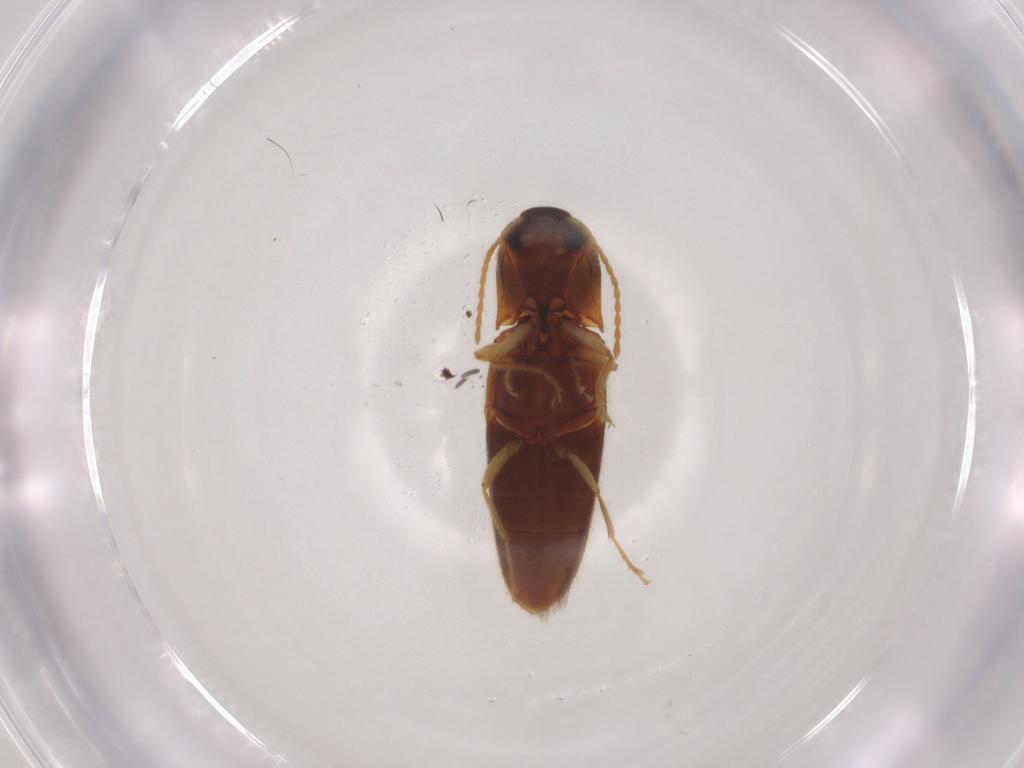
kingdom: Animalia
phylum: Arthropoda
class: Insecta
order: Coleoptera
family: Elateridae
